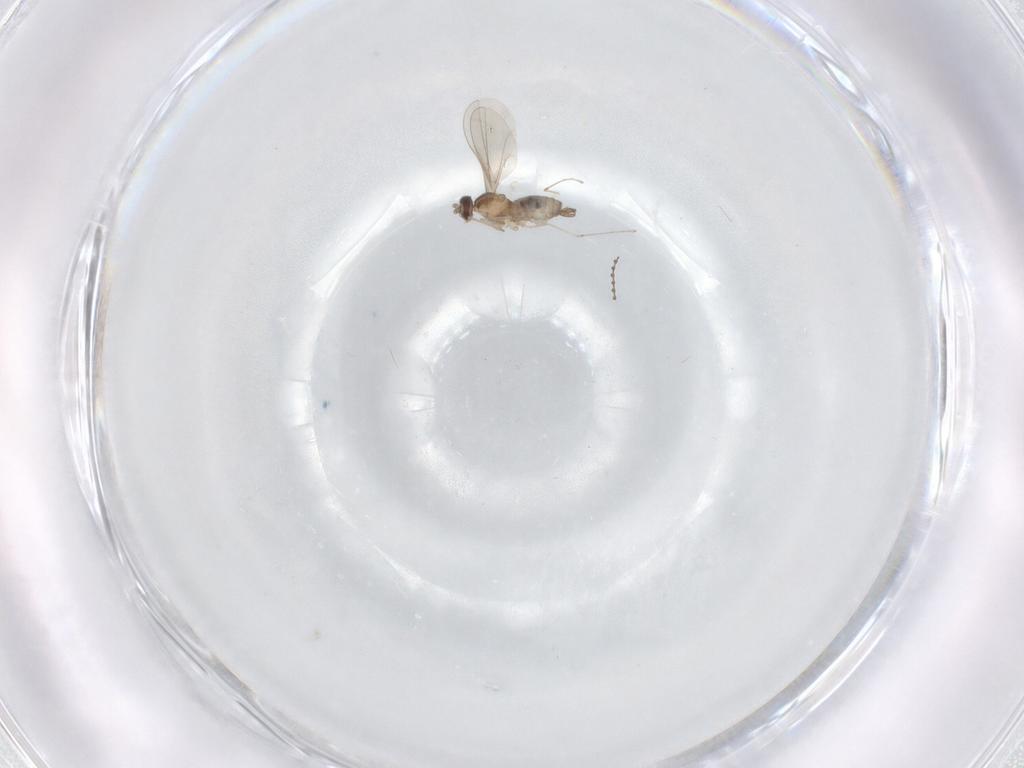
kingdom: Animalia
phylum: Arthropoda
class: Insecta
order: Diptera
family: Cecidomyiidae
